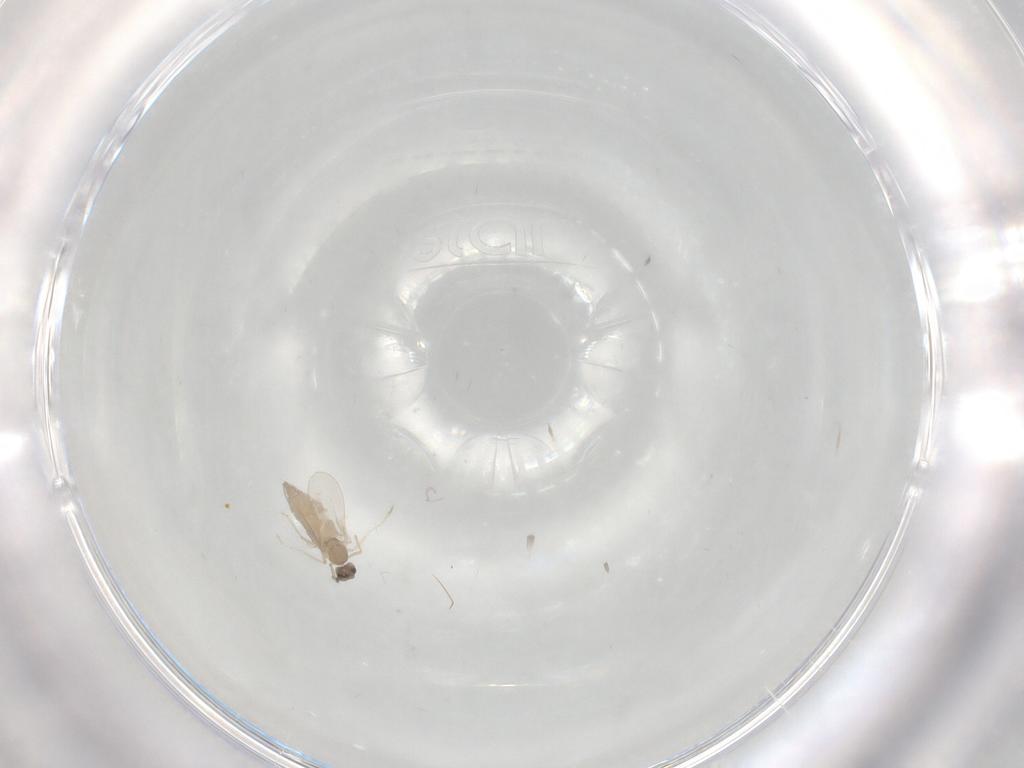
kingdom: Animalia
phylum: Arthropoda
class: Insecta
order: Diptera
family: Cecidomyiidae
